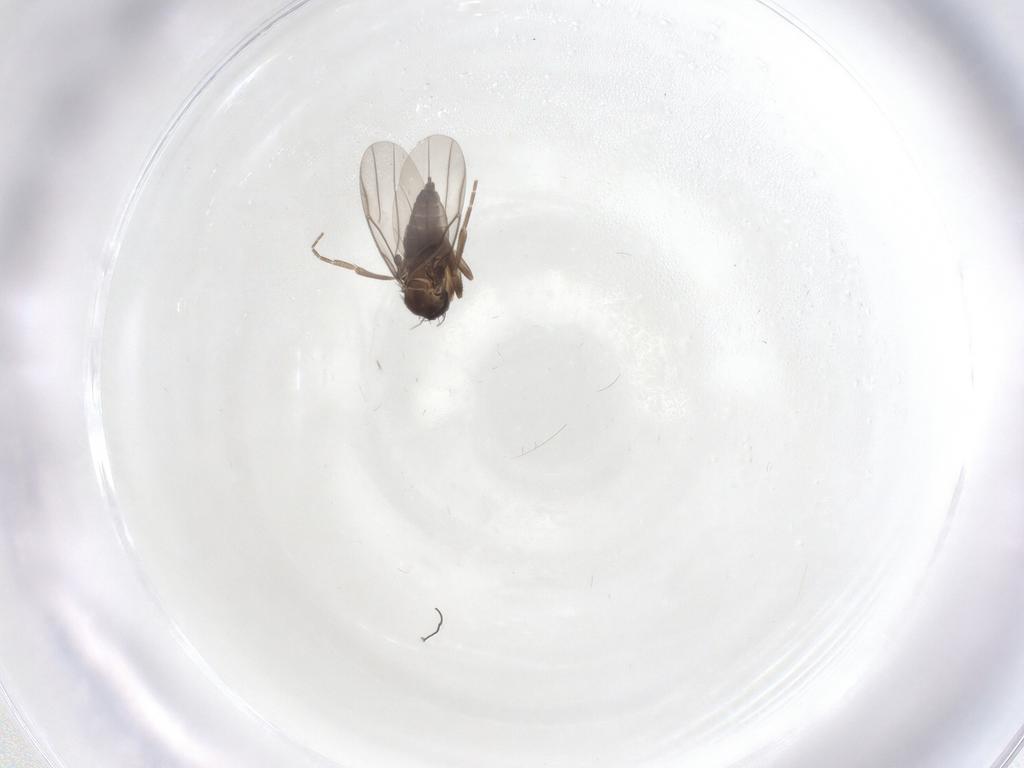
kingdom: Animalia
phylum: Arthropoda
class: Insecta
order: Diptera
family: Phoridae
